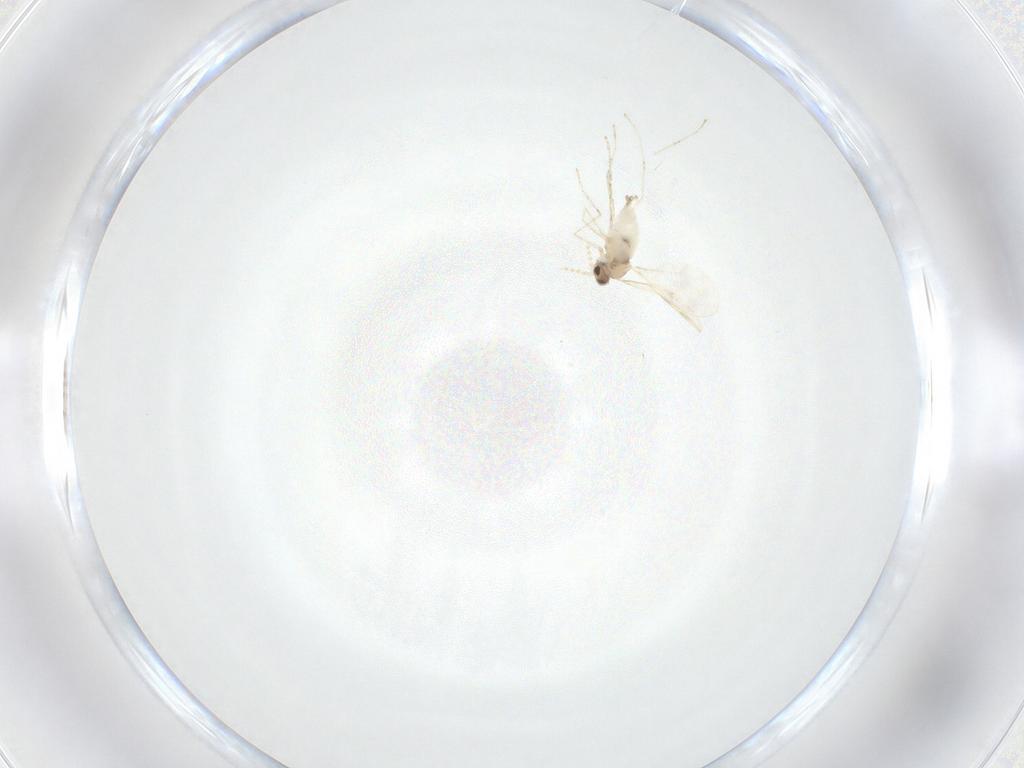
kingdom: Animalia
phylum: Arthropoda
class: Insecta
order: Diptera
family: Cecidomyiidae
